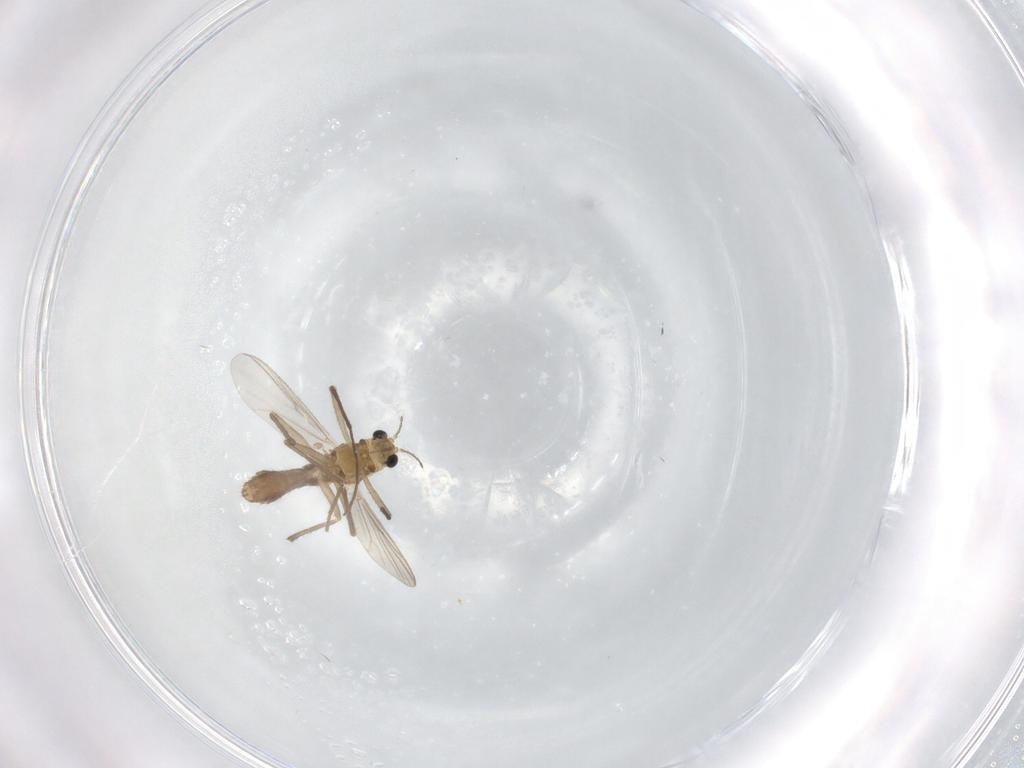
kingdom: Animalia
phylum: Arthropoda
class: Insecta
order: Diptera
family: Chironomidae
